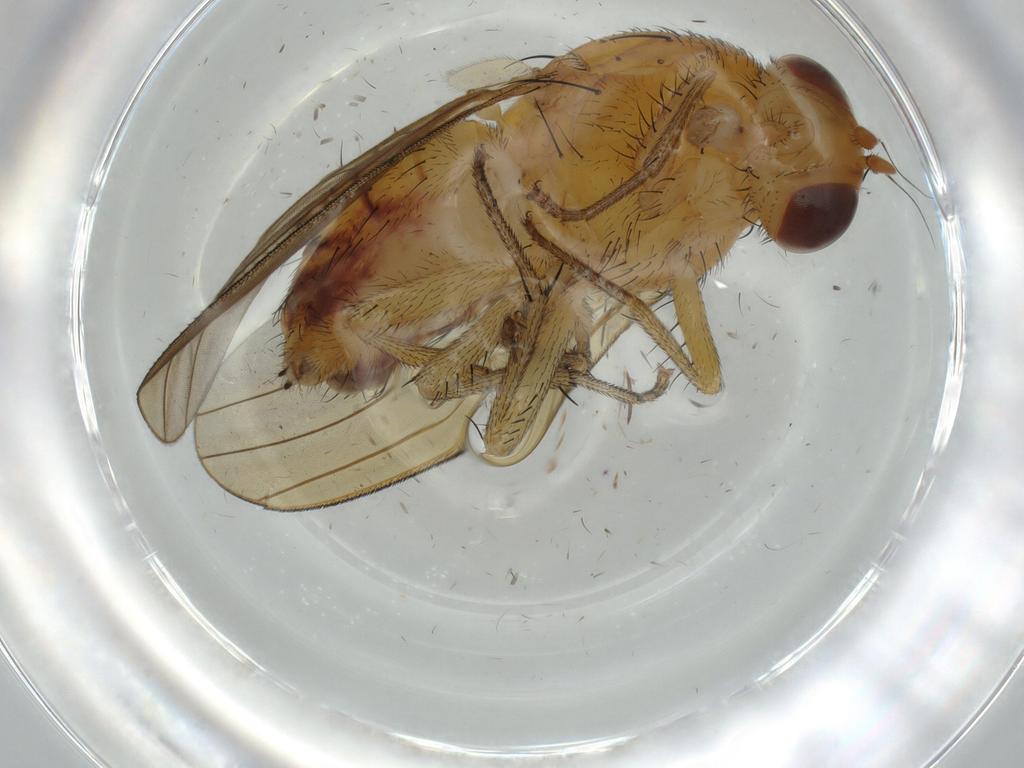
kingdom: Animalia
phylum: Arthropoda
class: Insecta
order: Diptera
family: Cecidomyiidae
